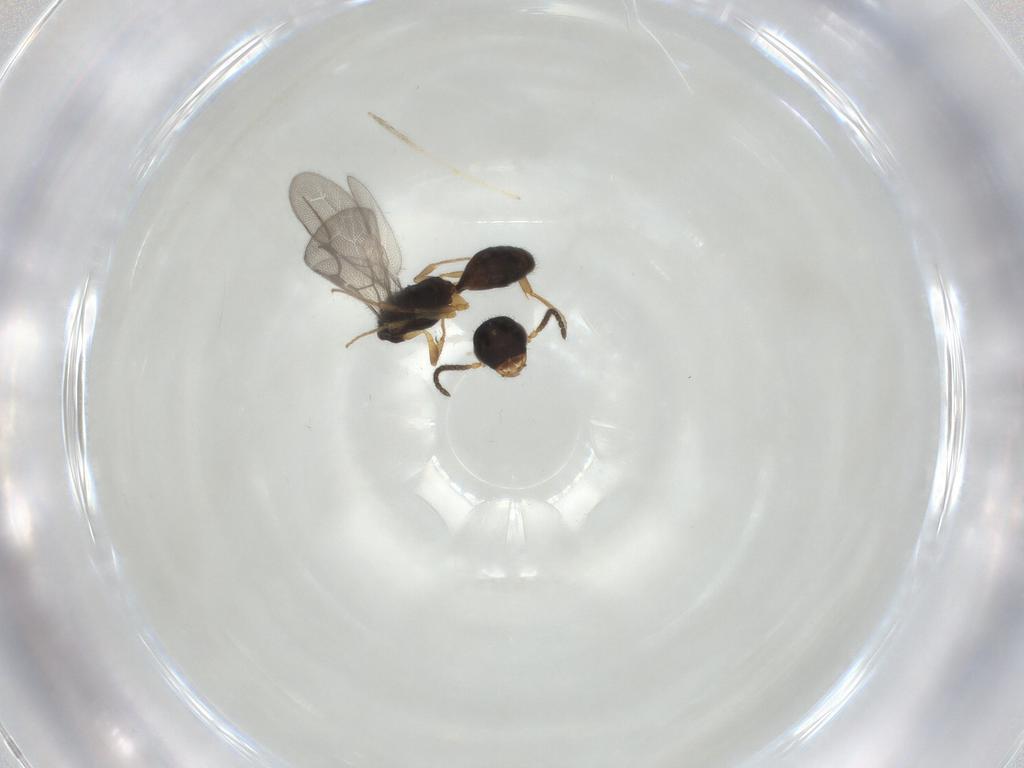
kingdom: Animalia
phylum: Arthropoda
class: Insecta
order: Hymenoptera
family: Bethylidae
